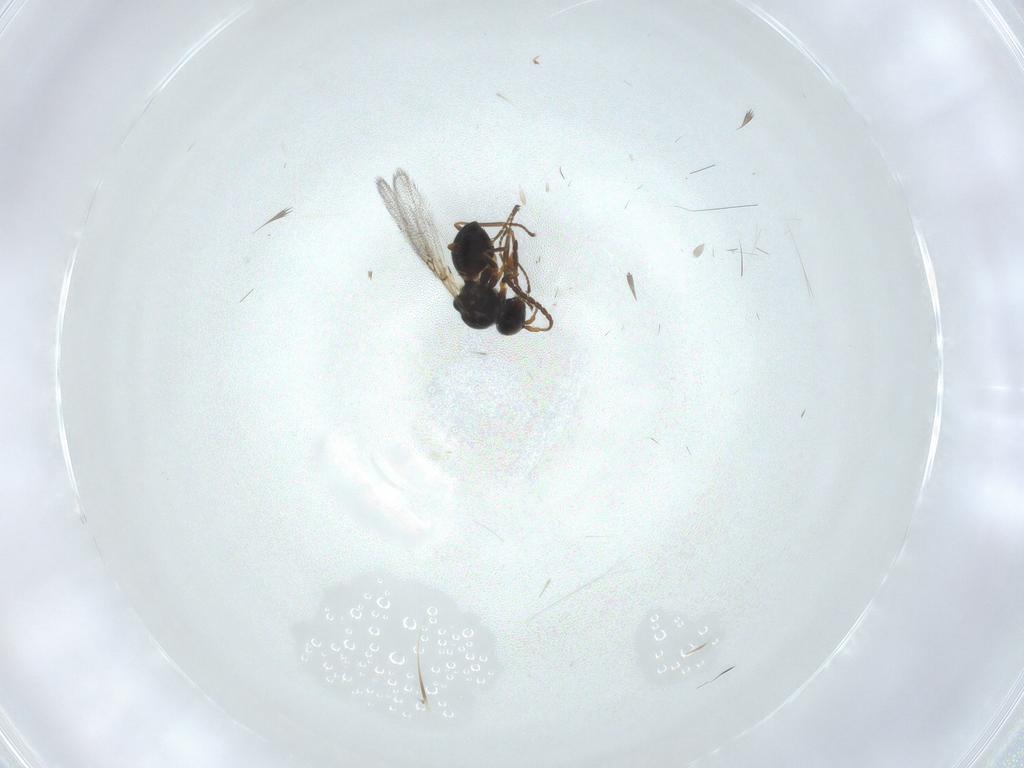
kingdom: Animalia
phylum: Arthropoda
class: Insecta
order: Hymenoptera
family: Figitidae
